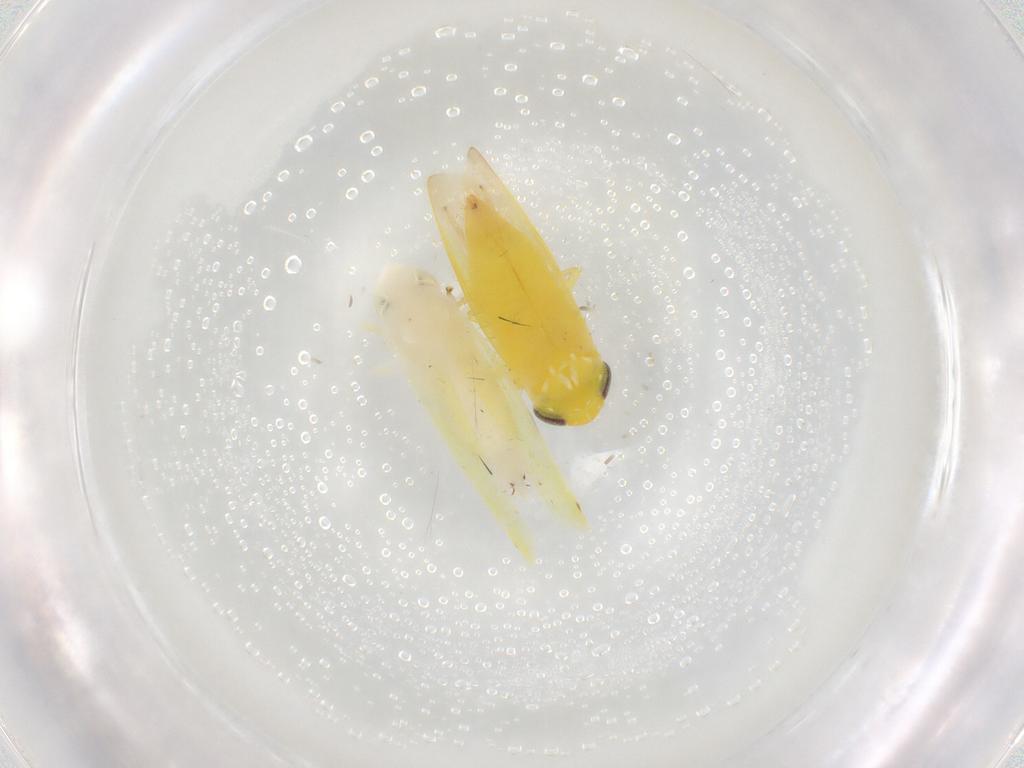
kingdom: Animalia
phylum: Arthropoda
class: Insecta
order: Hemiptera
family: Cicadellidae
